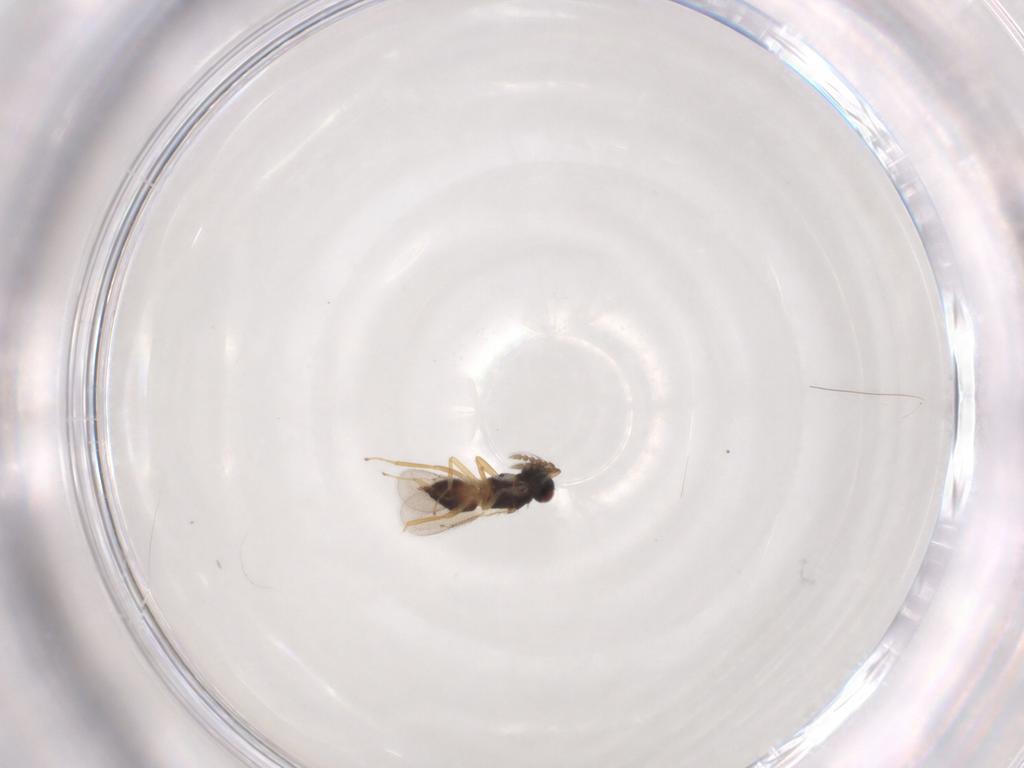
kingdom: Animalia
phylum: Arthropoda
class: Insecta
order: Hymenoptera
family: Eulophidae
